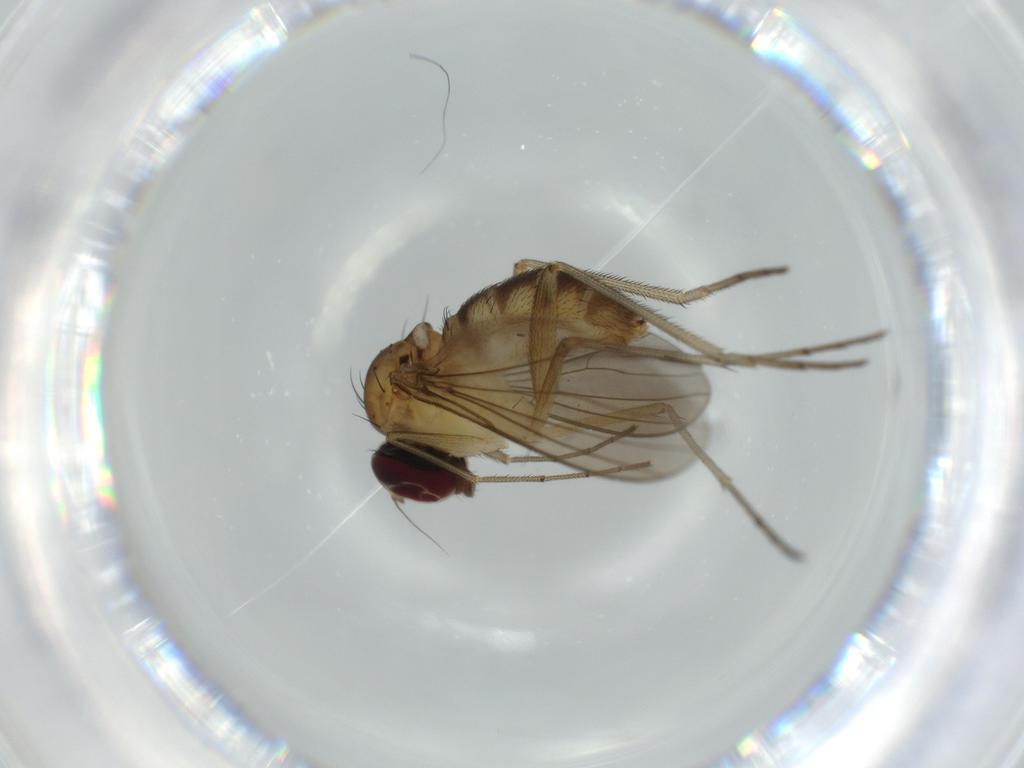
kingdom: Animalia
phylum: Arthropoda
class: Insecta
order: Diptera
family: Dolichopodidae
